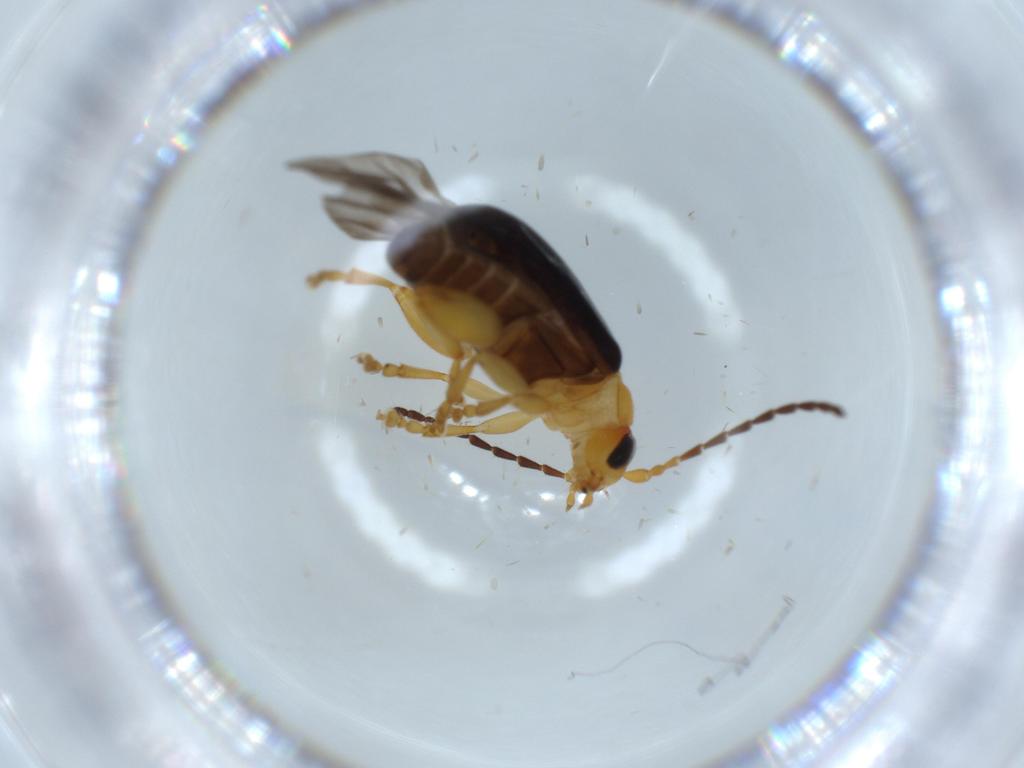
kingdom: Animalia
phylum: Arthropoda
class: Insecta
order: Coleoptera
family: Chrysomelidae
